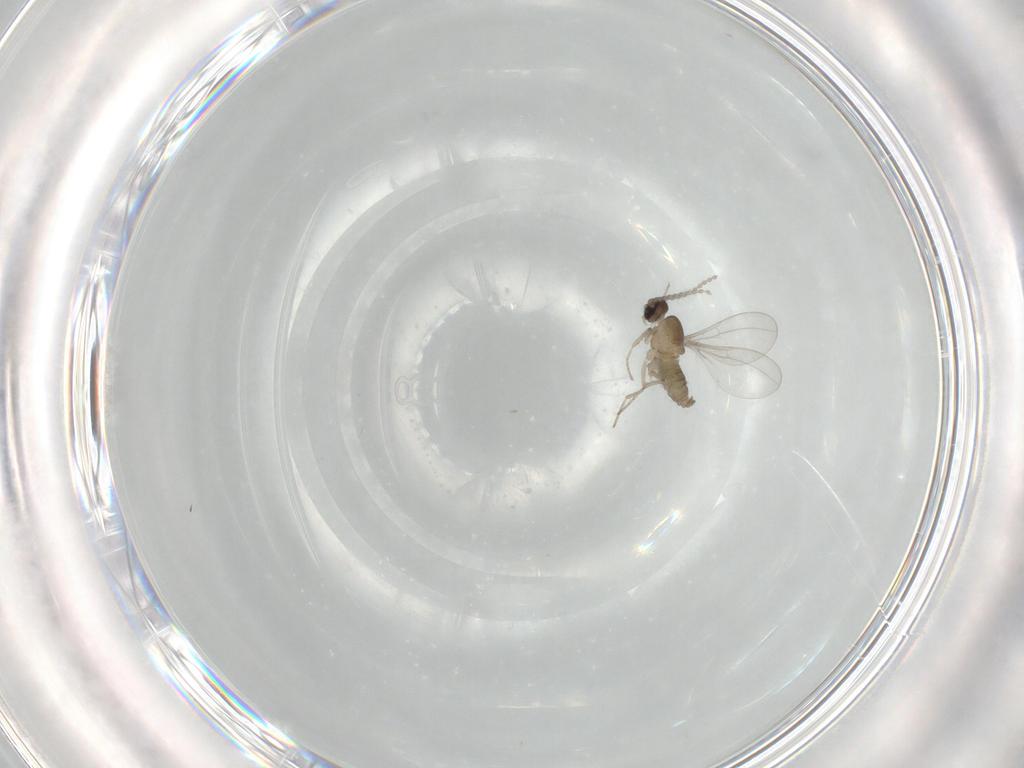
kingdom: Animalia
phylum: Arthropoda
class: Insecta
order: Diptera
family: Cecidomyiidae
